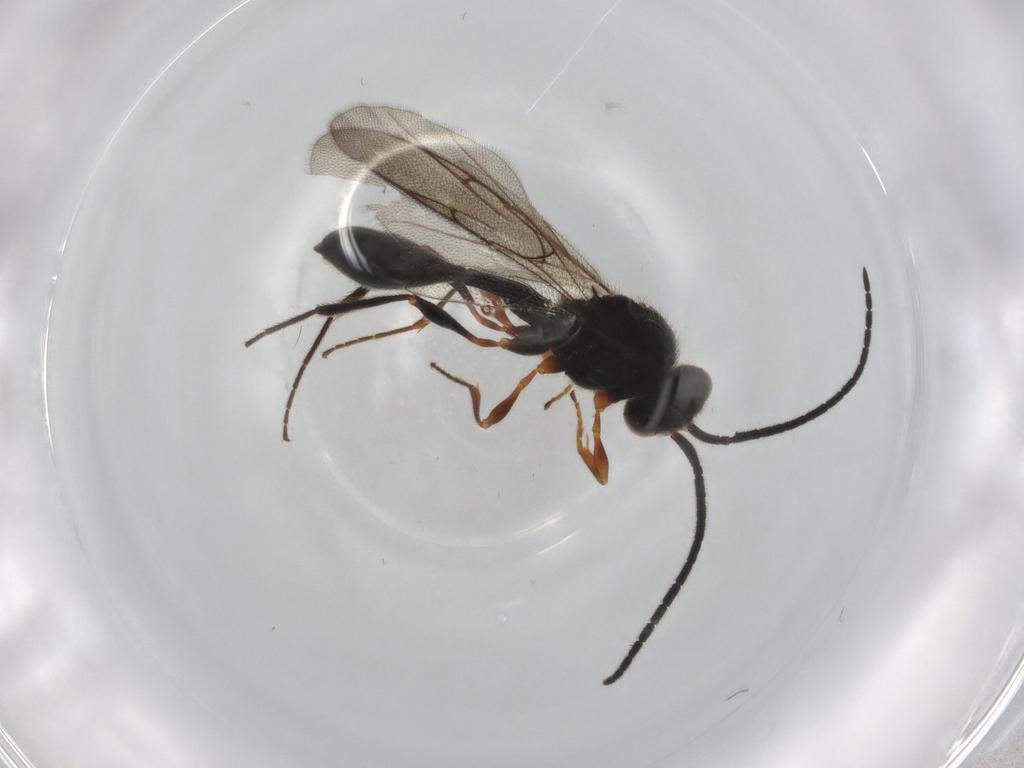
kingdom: Animalia
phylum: Arthropoda
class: Insecta
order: Hymenoptera
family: Diapriidae
